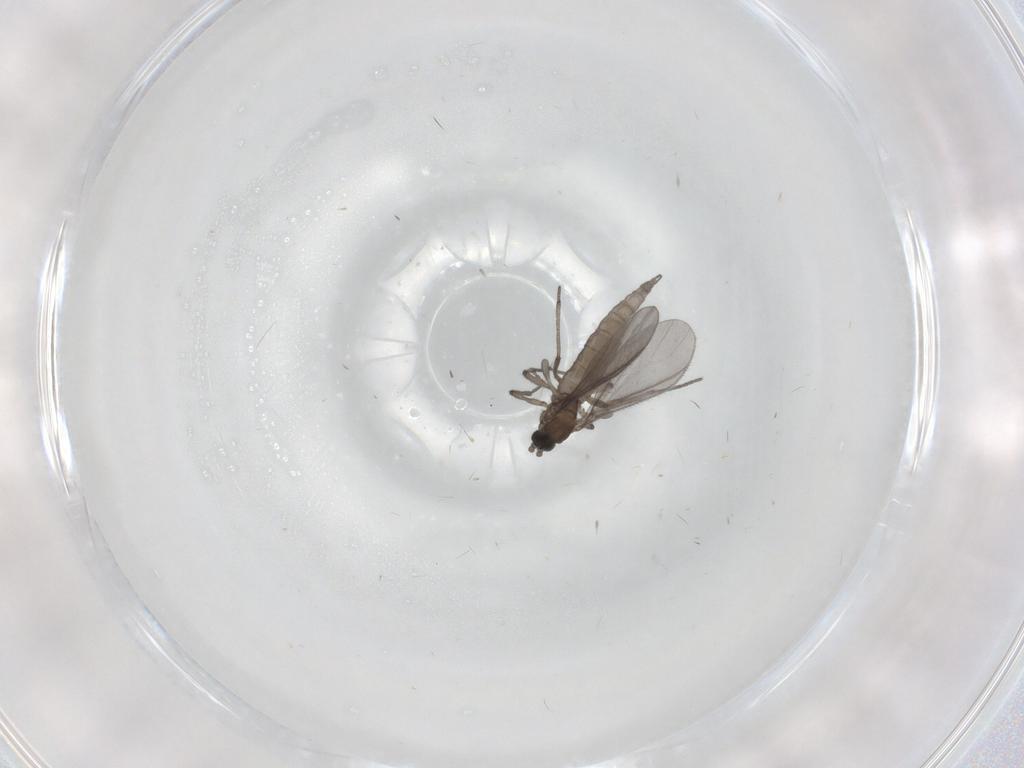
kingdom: Animalia
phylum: Arthropoda
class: Insecta
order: Diptera
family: Sciaridae
